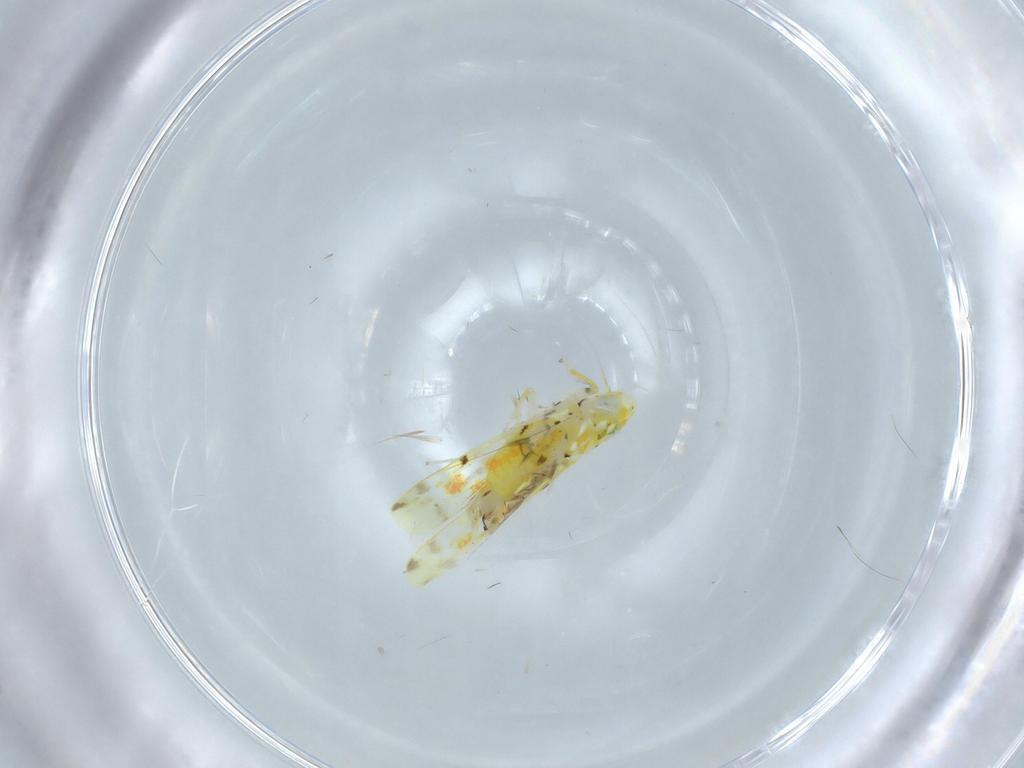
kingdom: Animalia
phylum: Arthropoda
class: Insecta
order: Hemiptera
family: Cicadellidae
